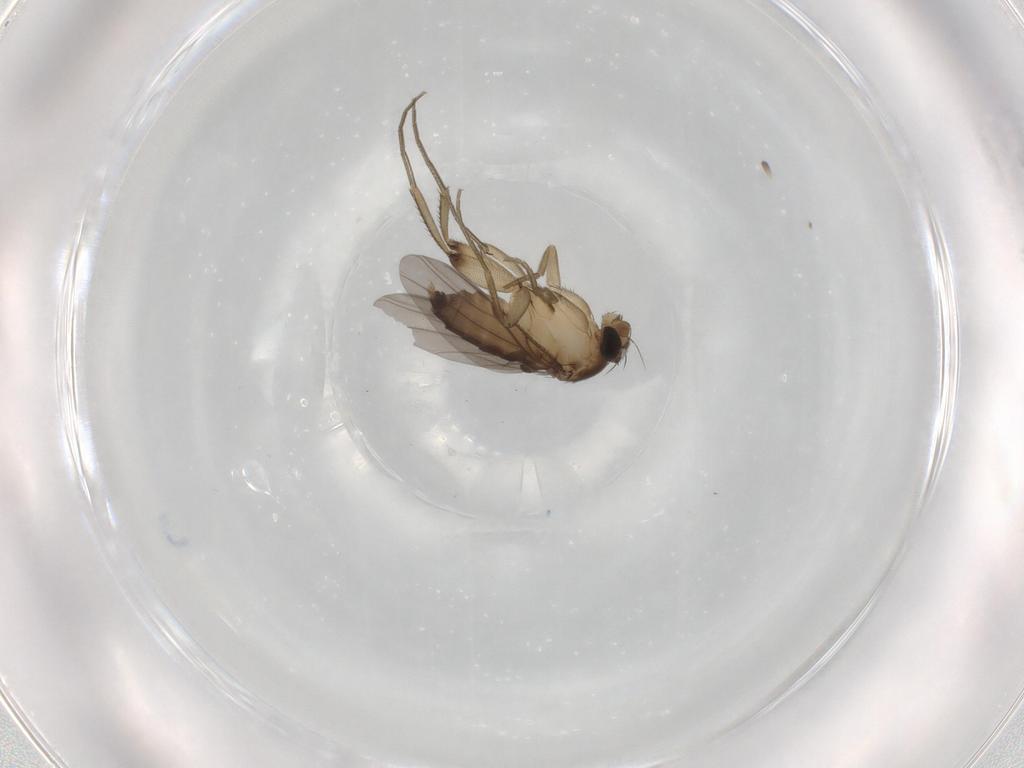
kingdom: Animalia
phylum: Arthropoda
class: Insecta
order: Diptera
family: Phoridae
